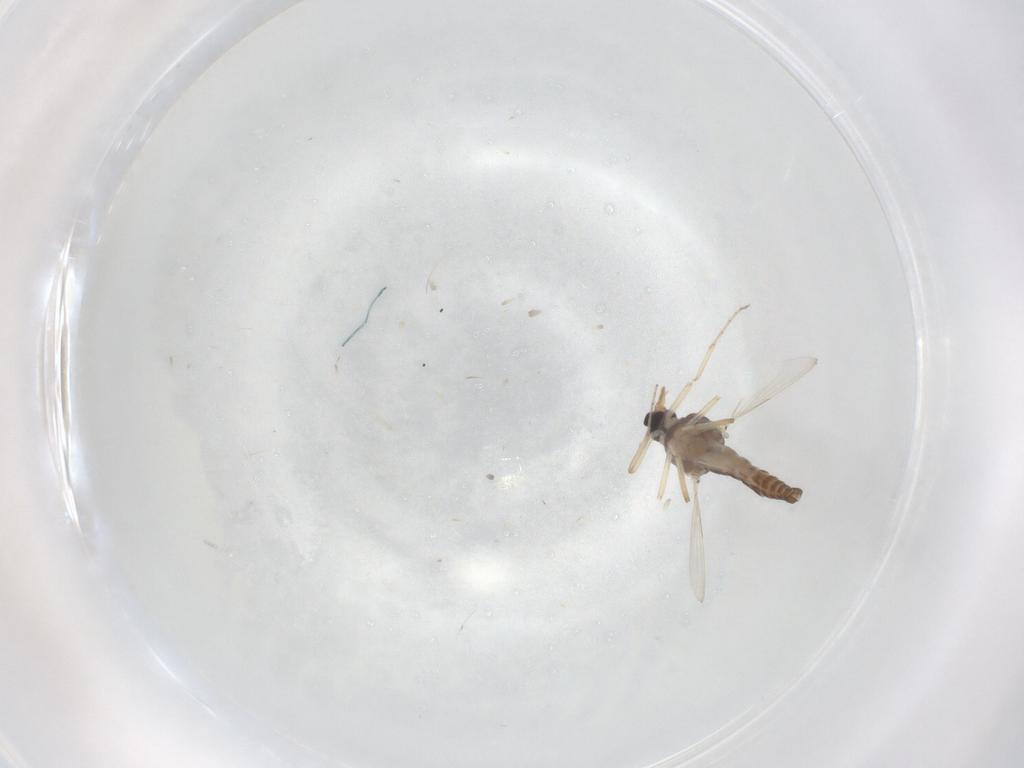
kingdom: Animalia
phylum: Arthropoda
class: Insecta
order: Diptera
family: Ceratopogonidae
